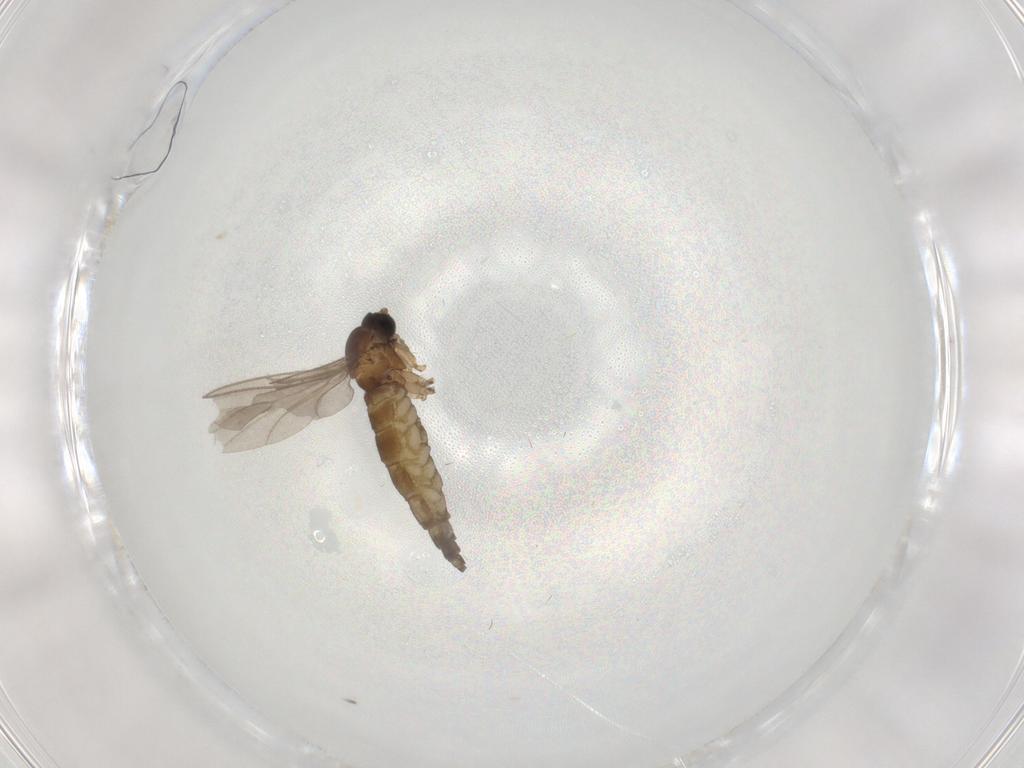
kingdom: Animalia
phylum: Arthropoda
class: Insecta
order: Diptera
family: Sciaridae
